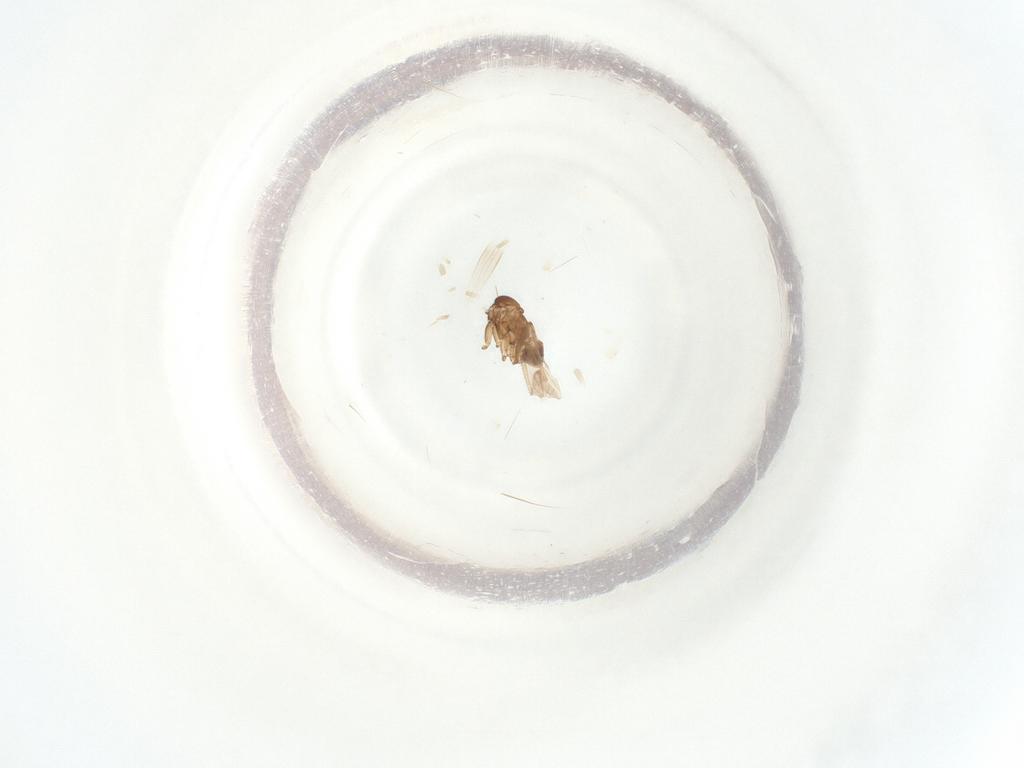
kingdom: Animalia
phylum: Arthropoda
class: Insecta
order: Diptera
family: Sciaridae
